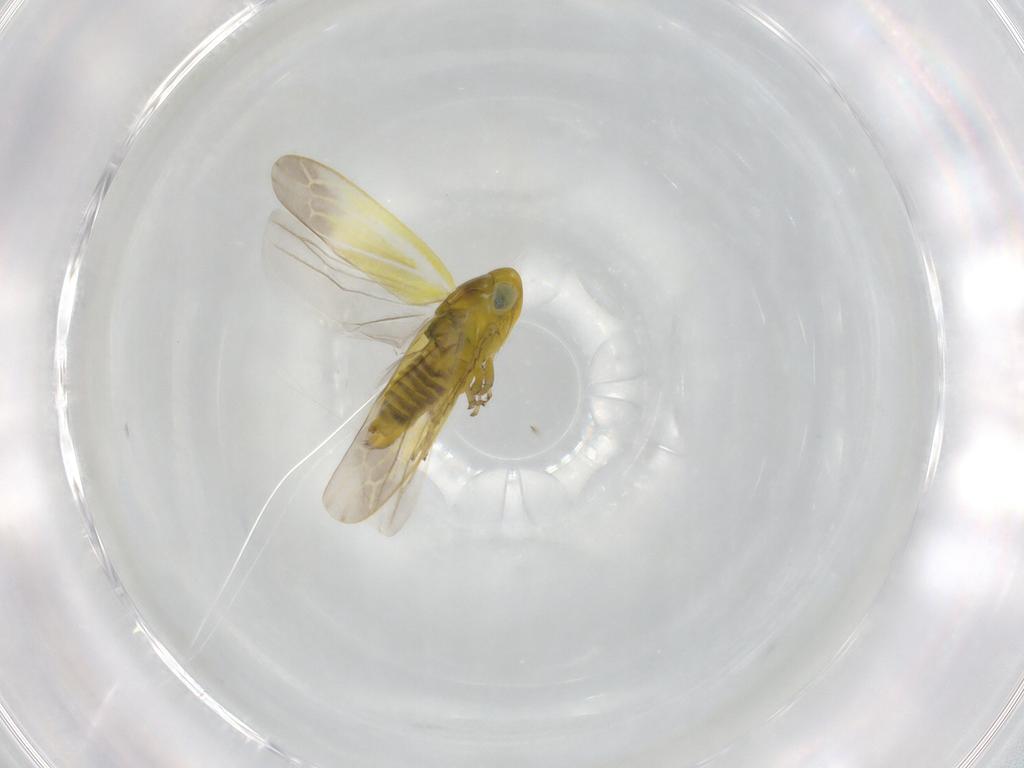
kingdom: Animalia
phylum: Arthropoda
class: Insecta
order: Hemiptera
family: Cicadellidae
